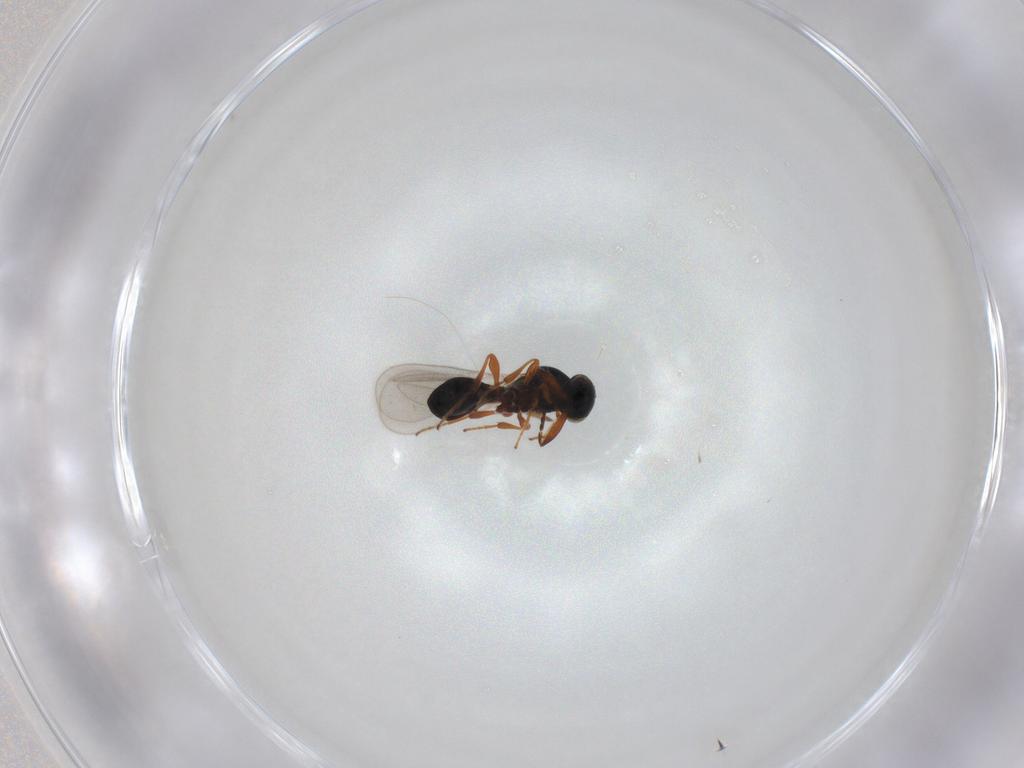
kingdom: Animalia
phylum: Arthropoda
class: Insecta
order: Hymenoptera
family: Platygastridae
